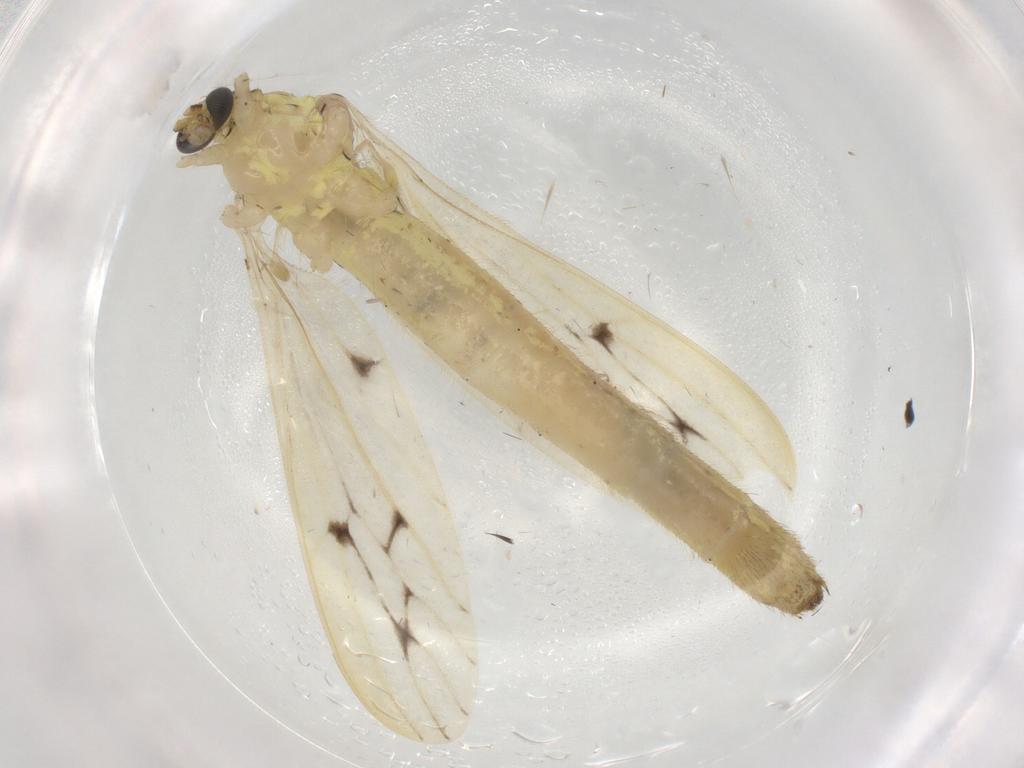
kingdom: Animalia
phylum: Arthropoda
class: Insecta
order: Diptera
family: Cecidomyiidae
